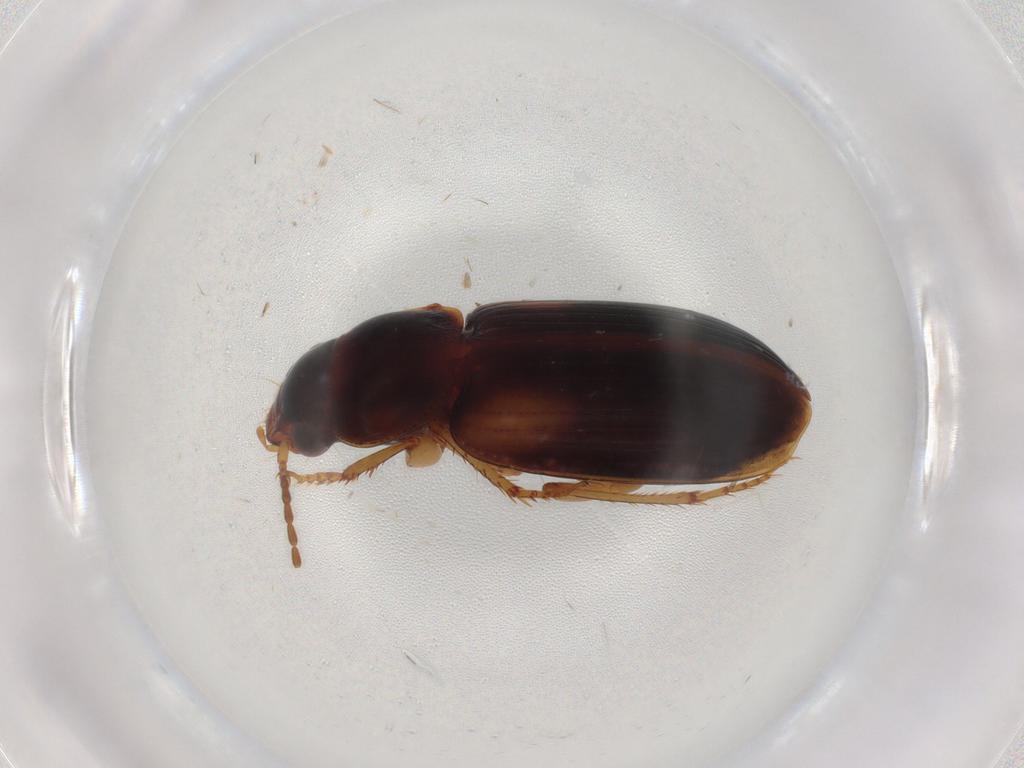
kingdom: Animalia
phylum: Arthropoda
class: Insecta
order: Coleoptera
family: Carabidae
